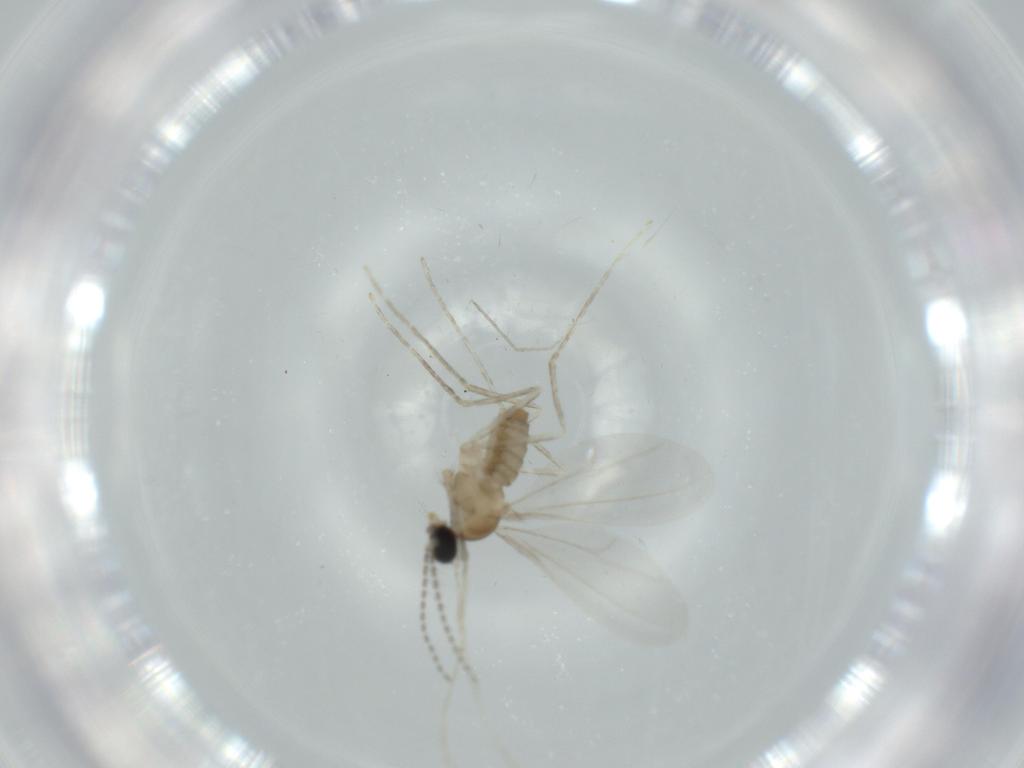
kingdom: Animalia
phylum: Arthropoda
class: Insecta
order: Diptera
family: Cecidomyiidae
